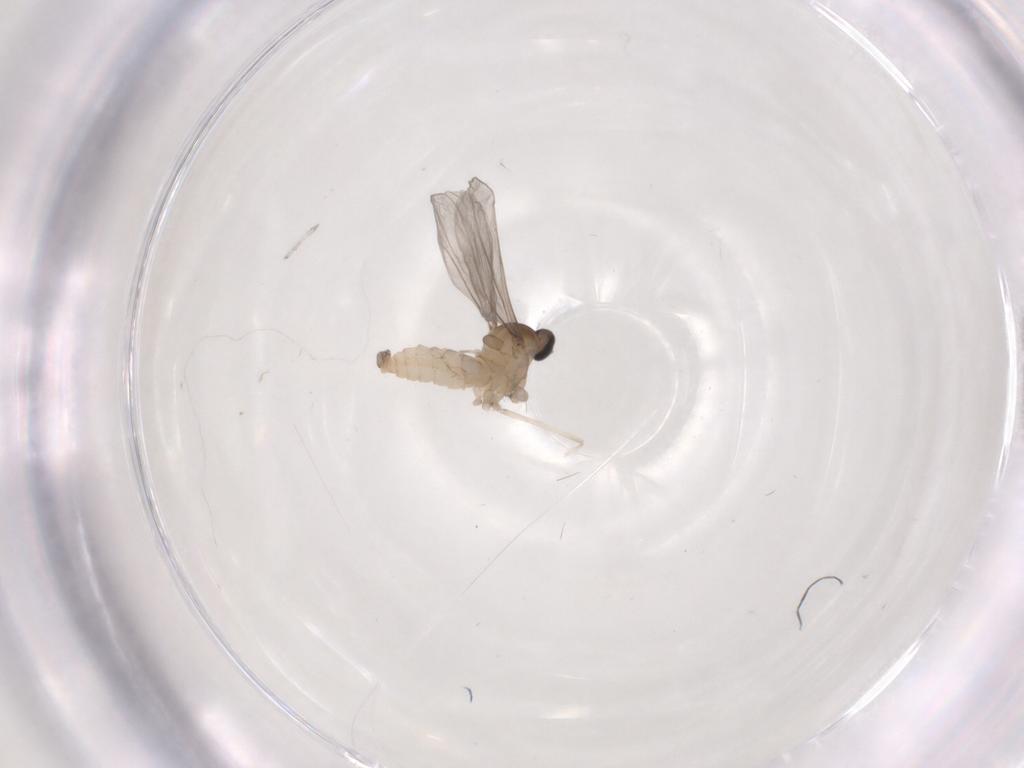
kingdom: Animalia
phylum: Arthropoda
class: Insecta
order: Diptera
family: Cecidomyiidae
